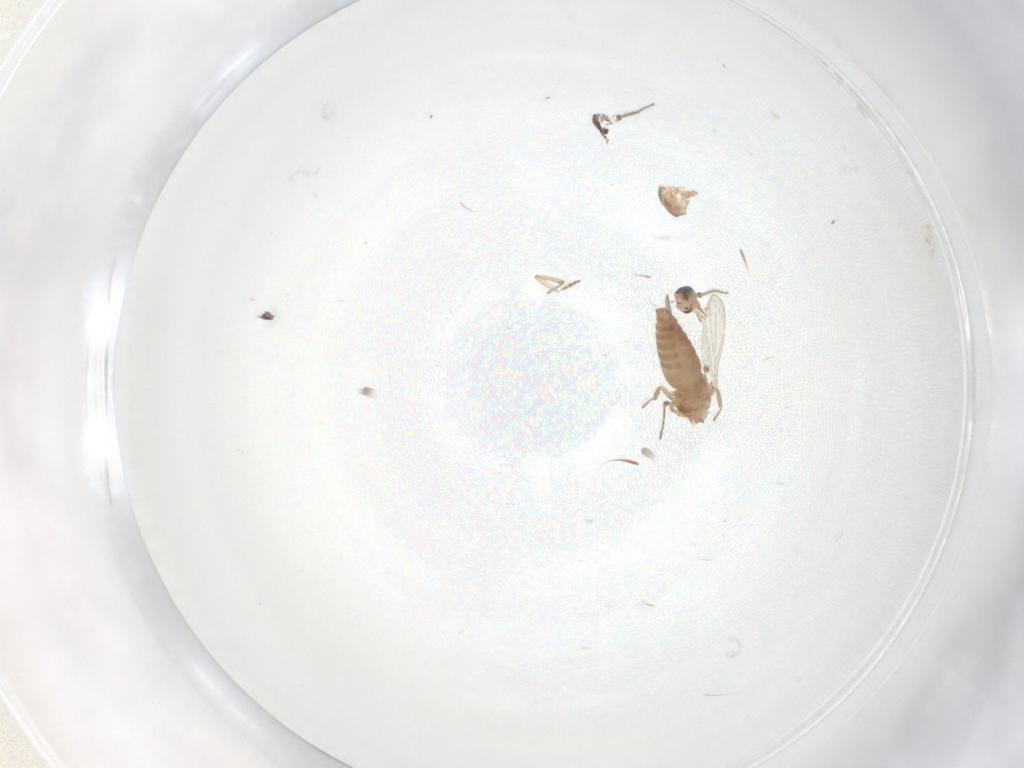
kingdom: Animalia
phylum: Arthropoda
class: Insecta
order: Diptera
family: Ceratopogonidae
